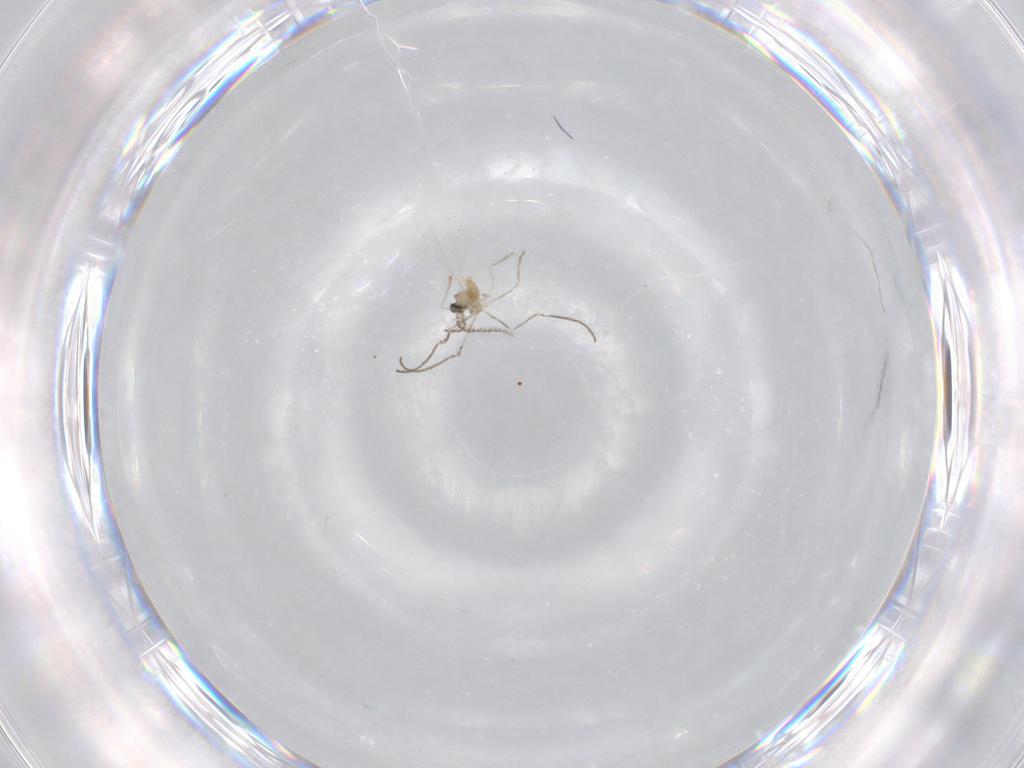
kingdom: Animalia
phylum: Arthropoda
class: Insecta
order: Diptera
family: Cecidomyiidae
